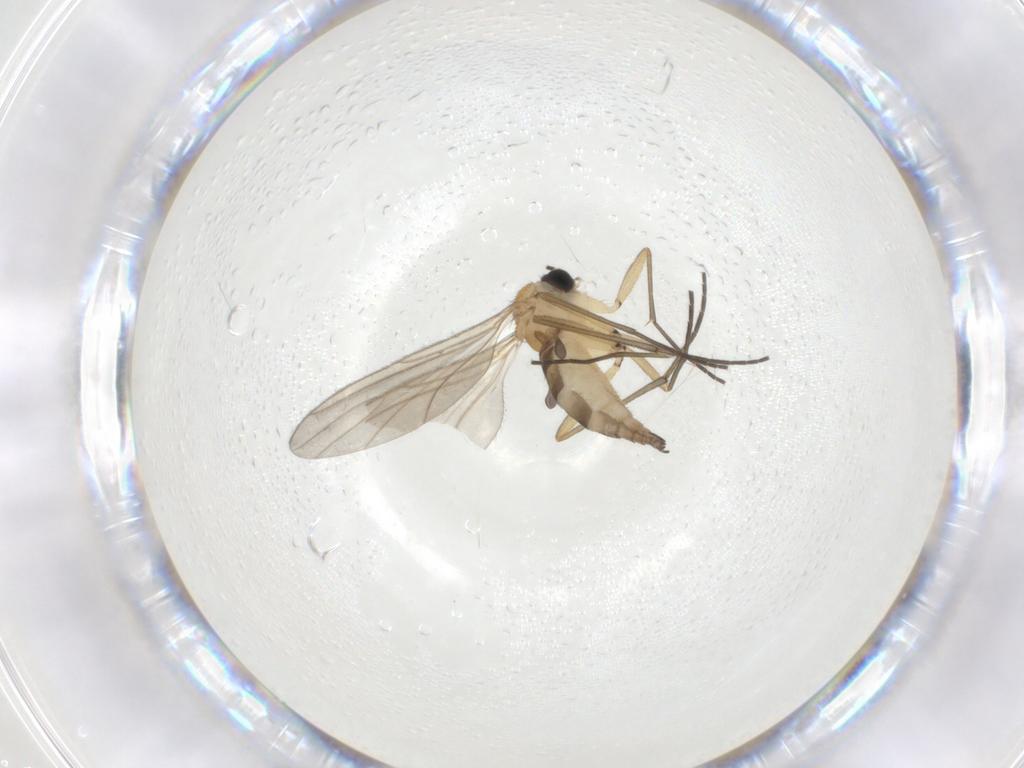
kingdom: Animalia
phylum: Arthropoda
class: Insecta
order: Diptera
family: Sciaridae
